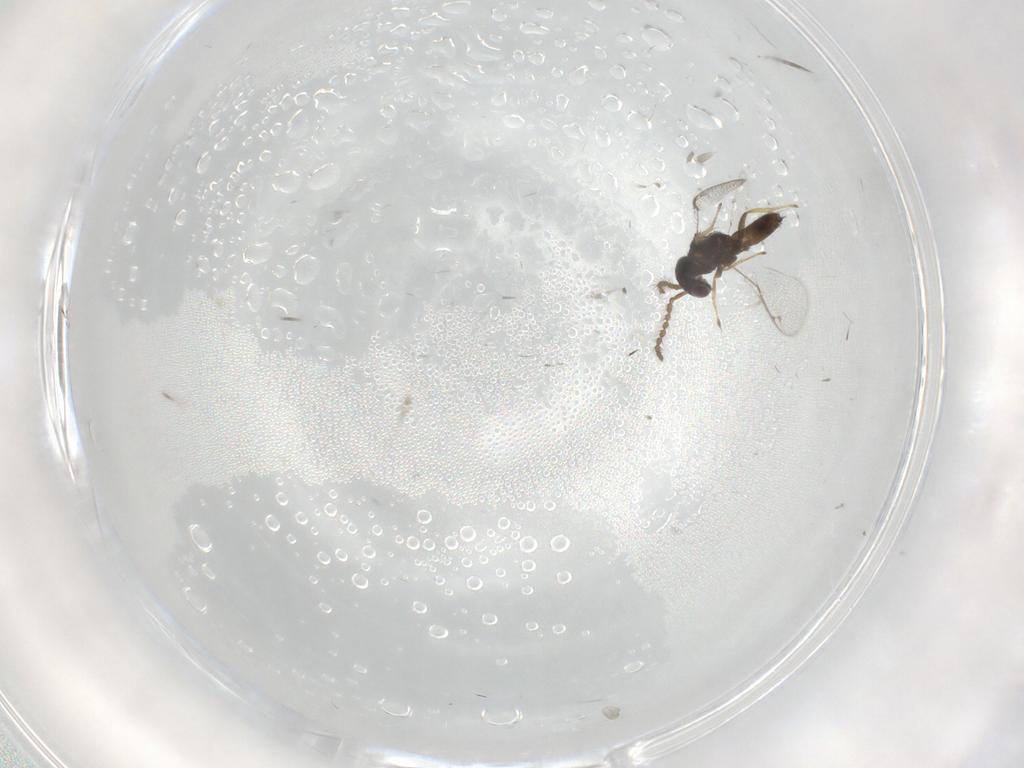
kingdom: Animalia
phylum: Arthropoda
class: Insecta
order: Hymenoptera
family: Pirenidae
